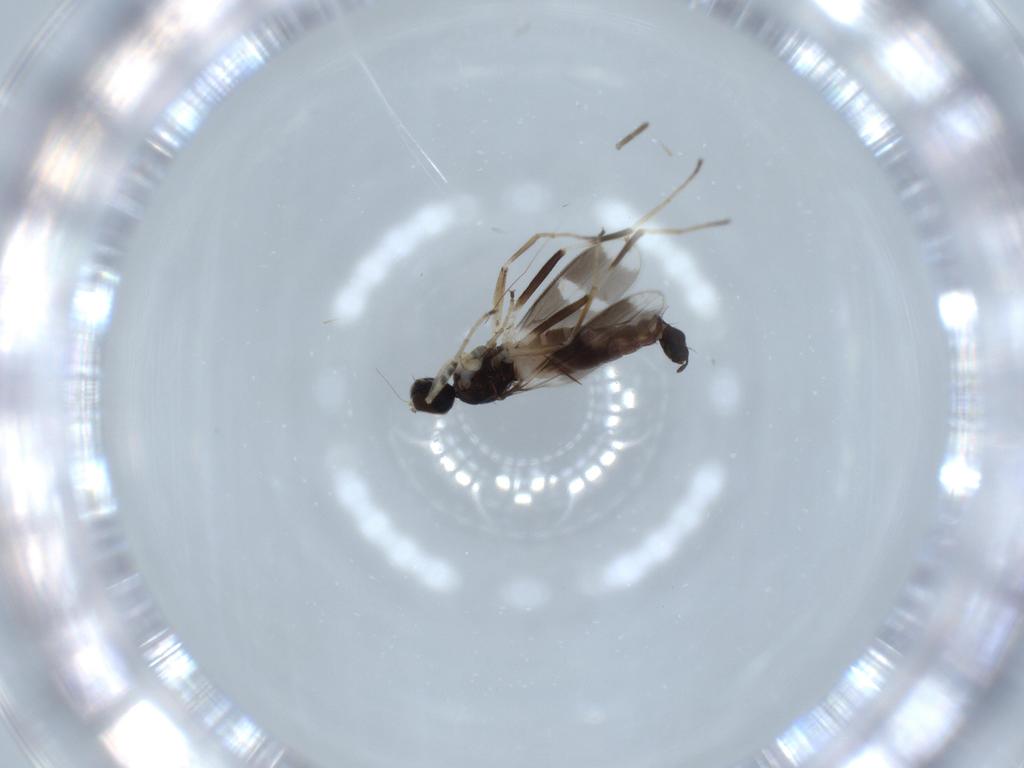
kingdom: Animalia
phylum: Arthropoda
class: Insecta
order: Diptera
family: Hybotidae
